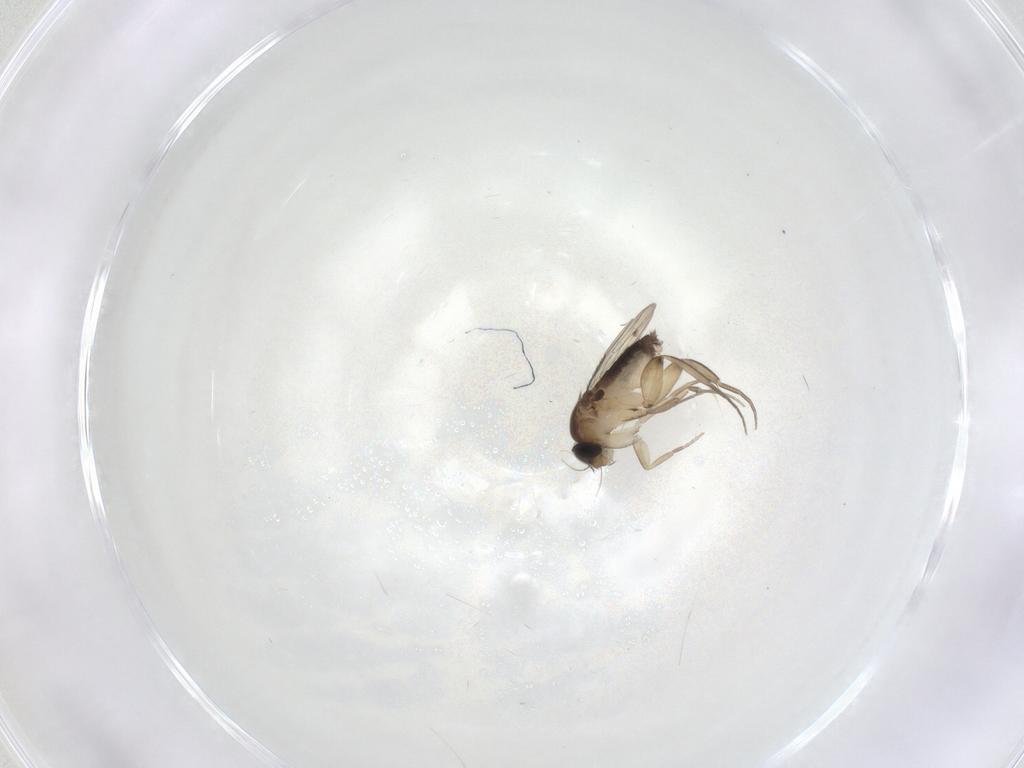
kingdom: Animalia
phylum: Arthropoda
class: Insecta
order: Diptera
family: Phoridae
